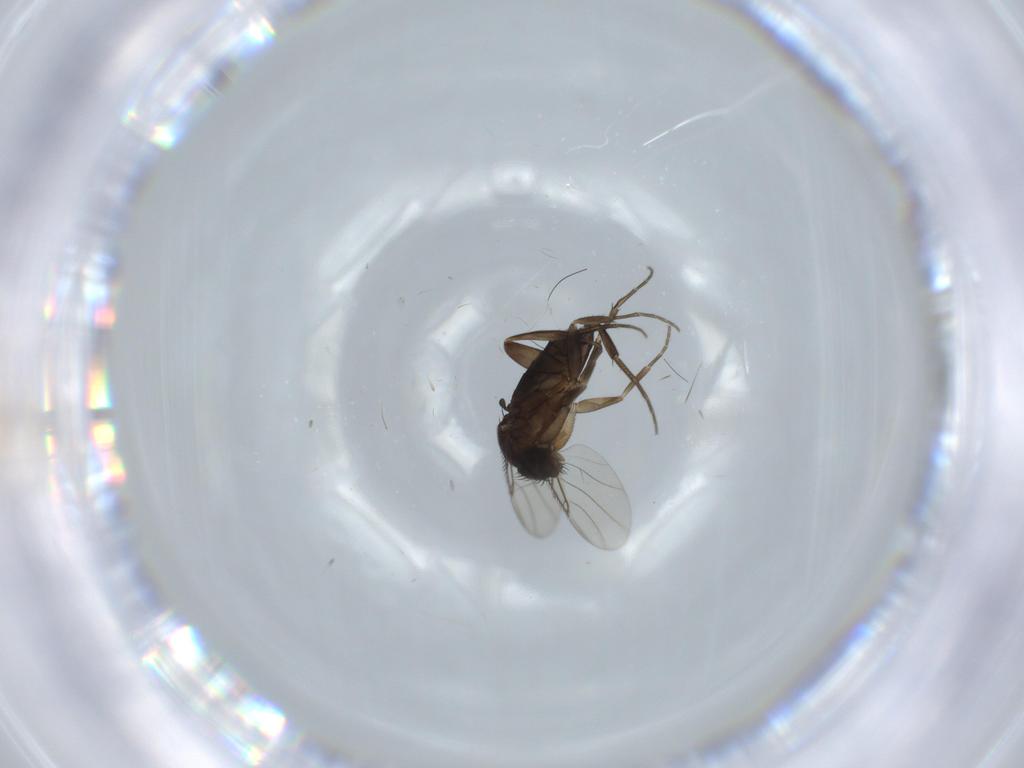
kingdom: Animalia
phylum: Arthropoda
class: Insecta
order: Diptera
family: Phoridae
